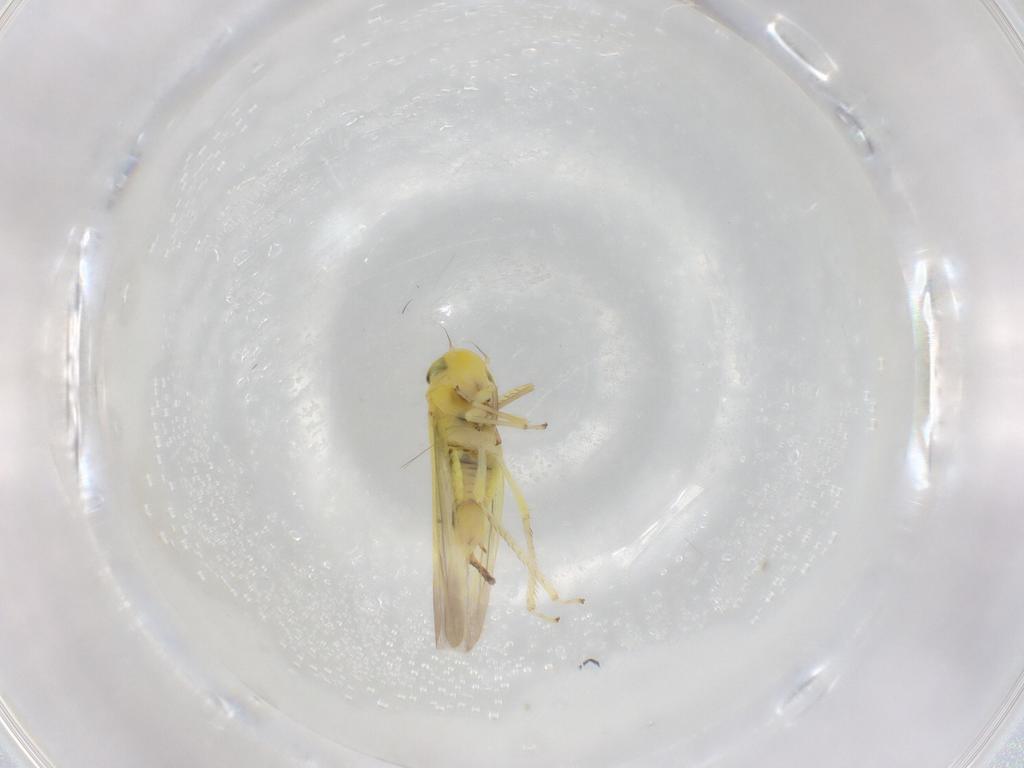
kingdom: Animalia
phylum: Arthropoda
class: Insecta
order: Hemiptera
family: Cicadellidae
